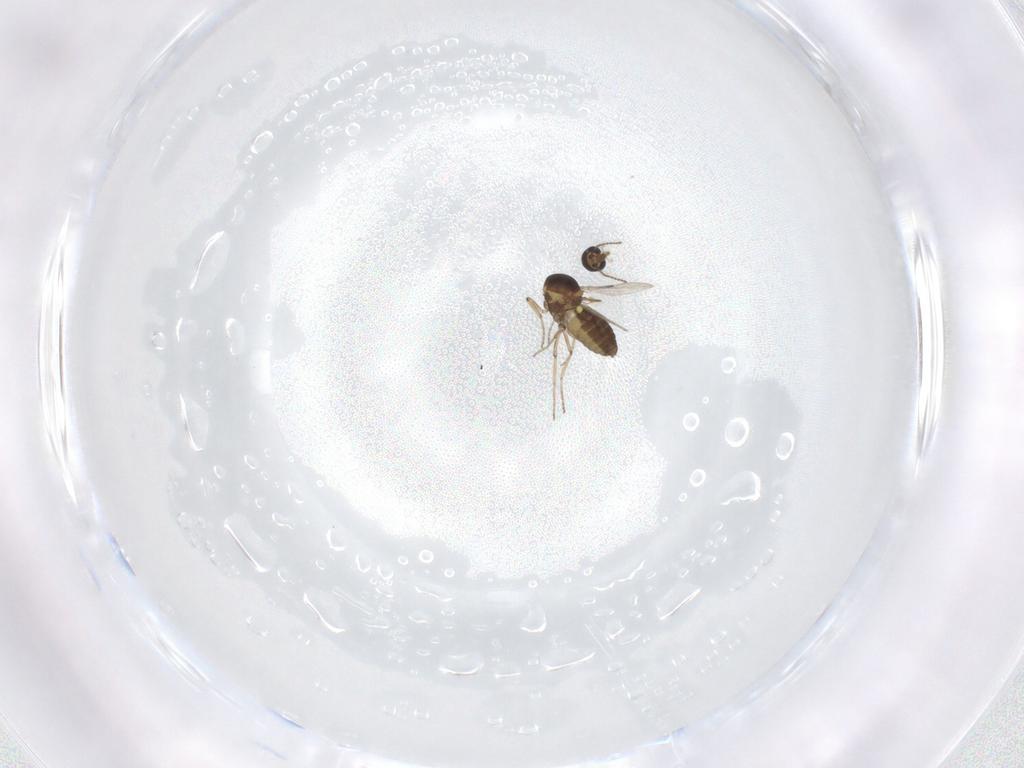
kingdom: Animalia
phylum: Arthropoda
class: Insecta
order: Diptera
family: Ceratopogonidae
